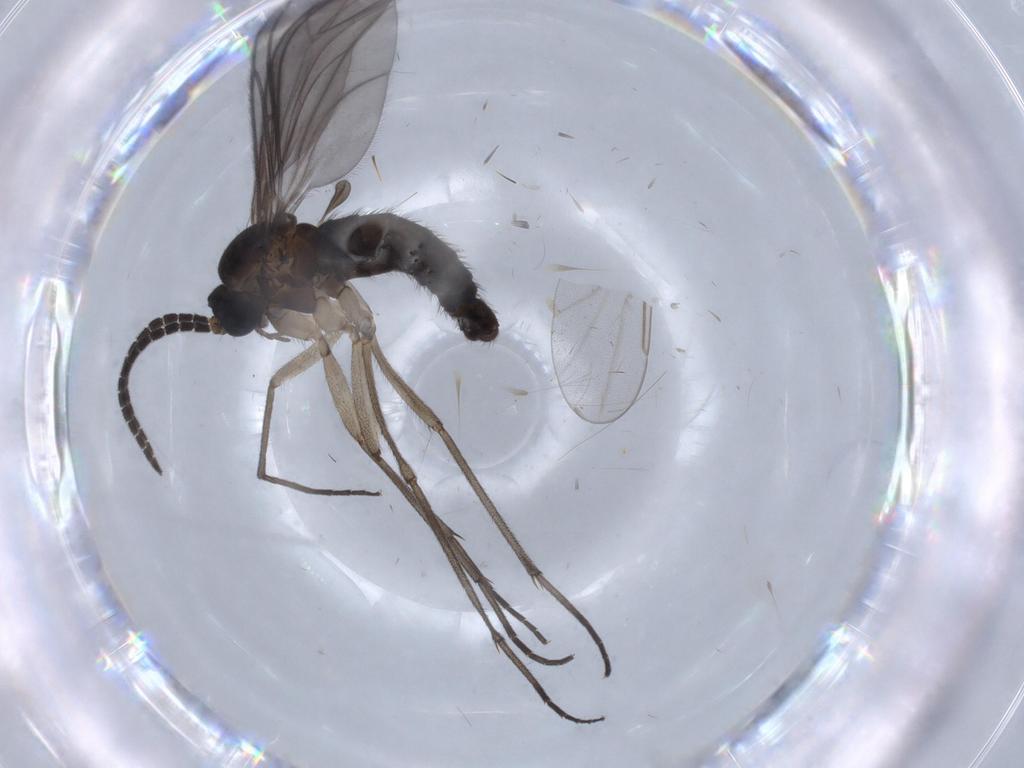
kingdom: Animalia
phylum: Arthropoda
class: Insecta
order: Diptera
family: Sciaridae
